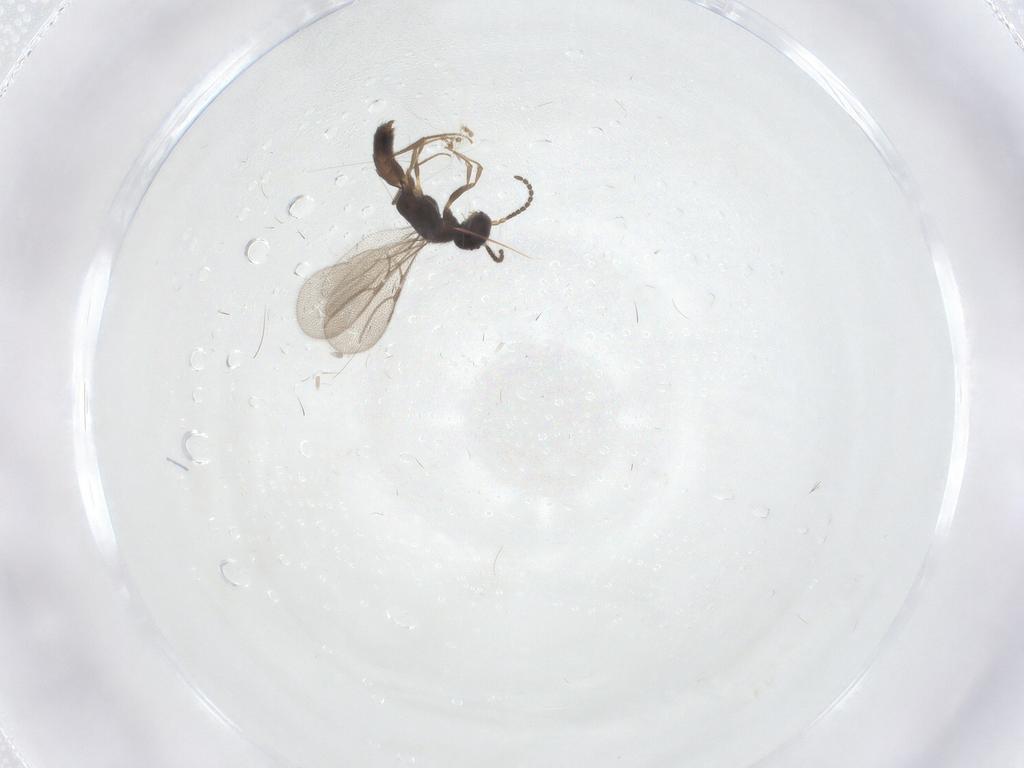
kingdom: Animalia
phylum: Arthropoda
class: Insecta
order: Hymenoptera
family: Bethylidae
